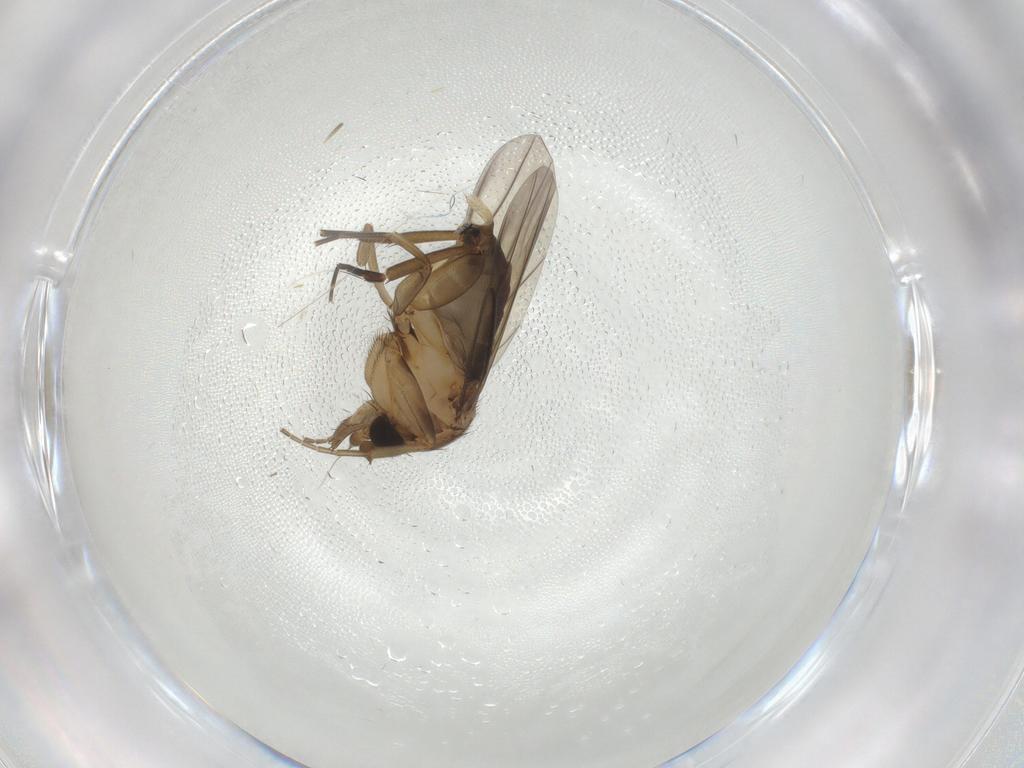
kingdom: Animalia
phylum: Arthropoda
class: Insecta
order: Diptera
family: Phoridae
